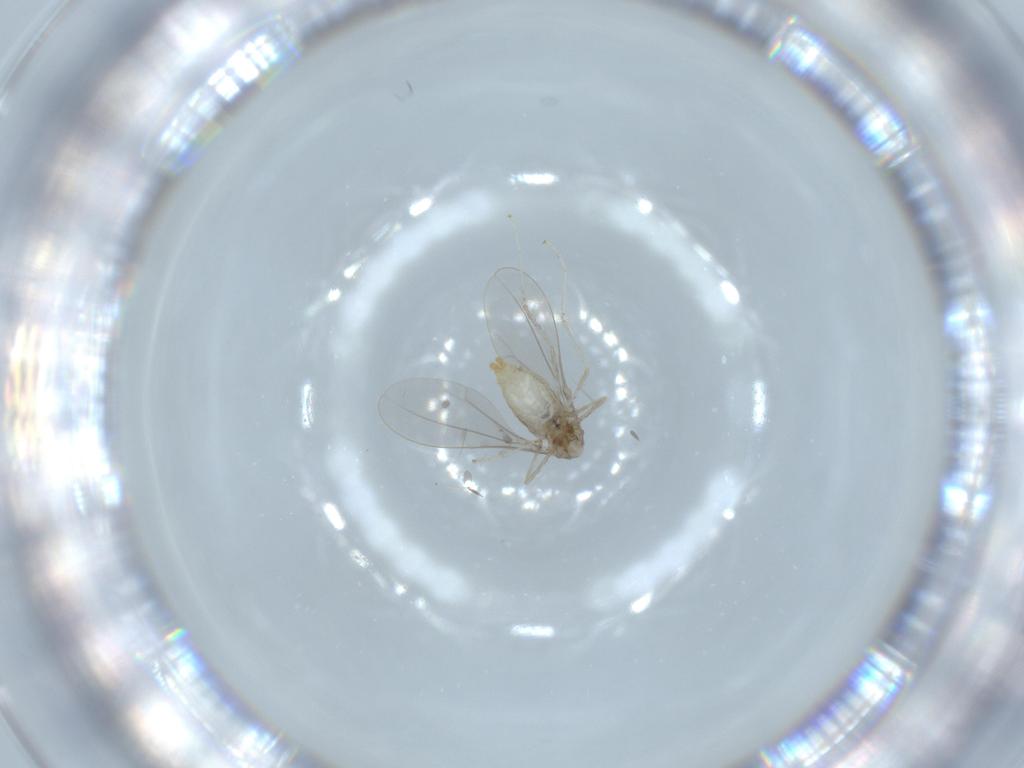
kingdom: Animalia
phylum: Arthropoda
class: Insecta
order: Diptera
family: Cecidomyiidae
